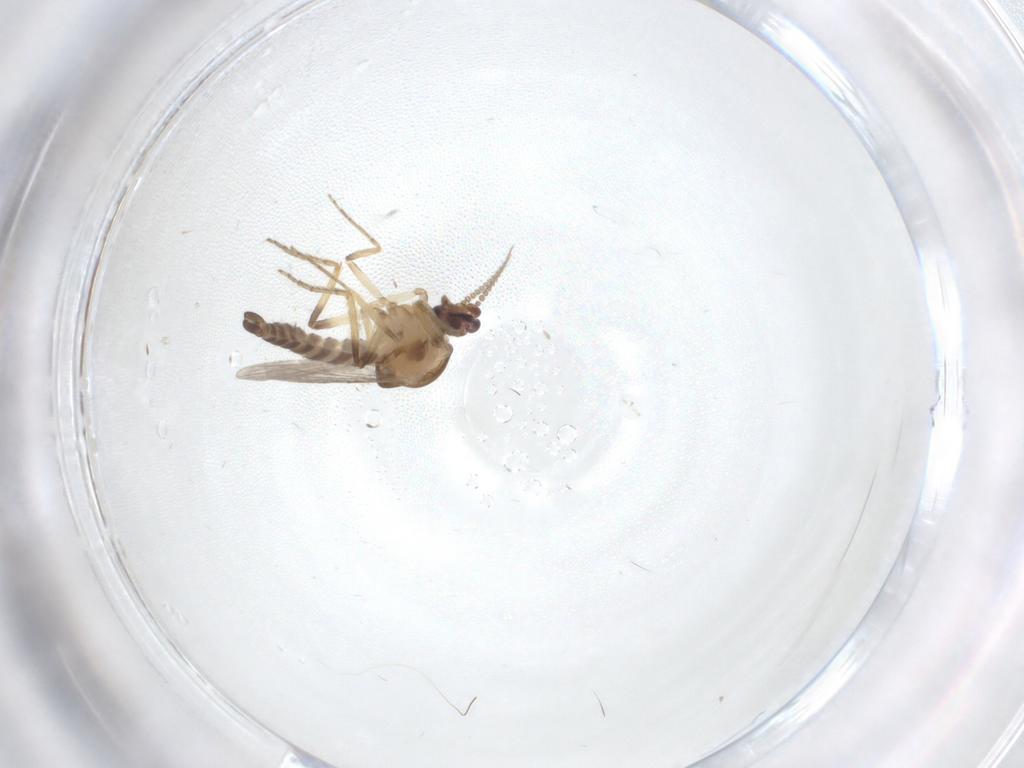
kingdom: Animalia
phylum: Arthropoda
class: Insecta
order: Diptera
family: Ceratopogonidae
